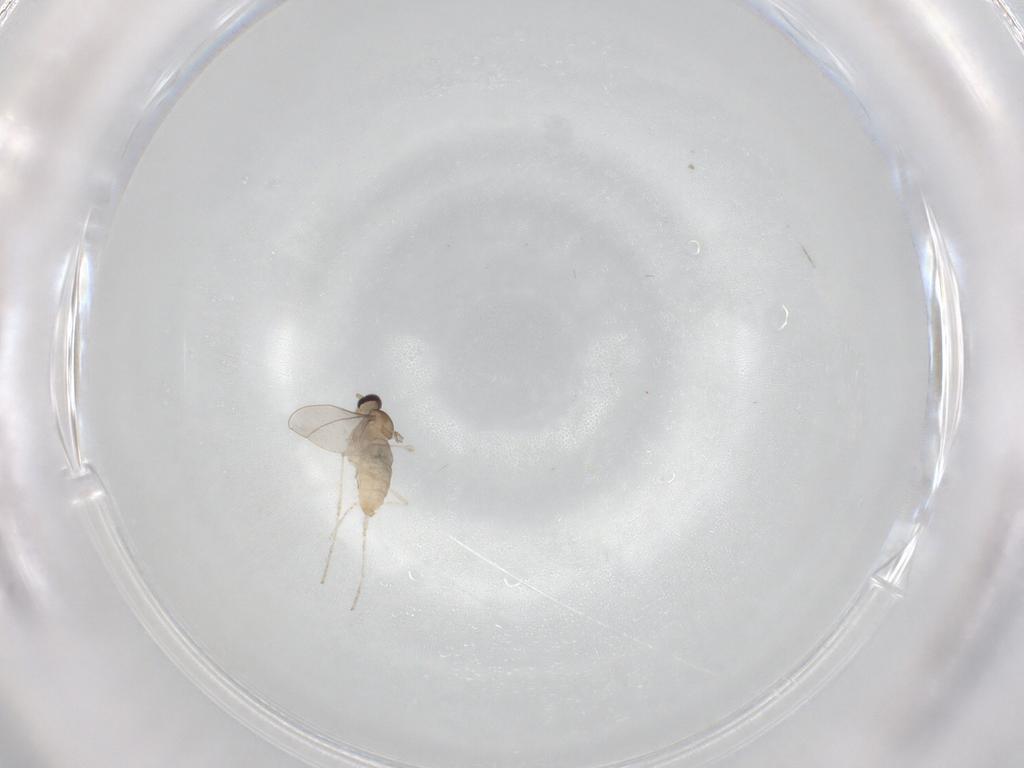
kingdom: Animalia
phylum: Arthropoda
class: Insecta
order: Diptera
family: Cecidomyiidae
